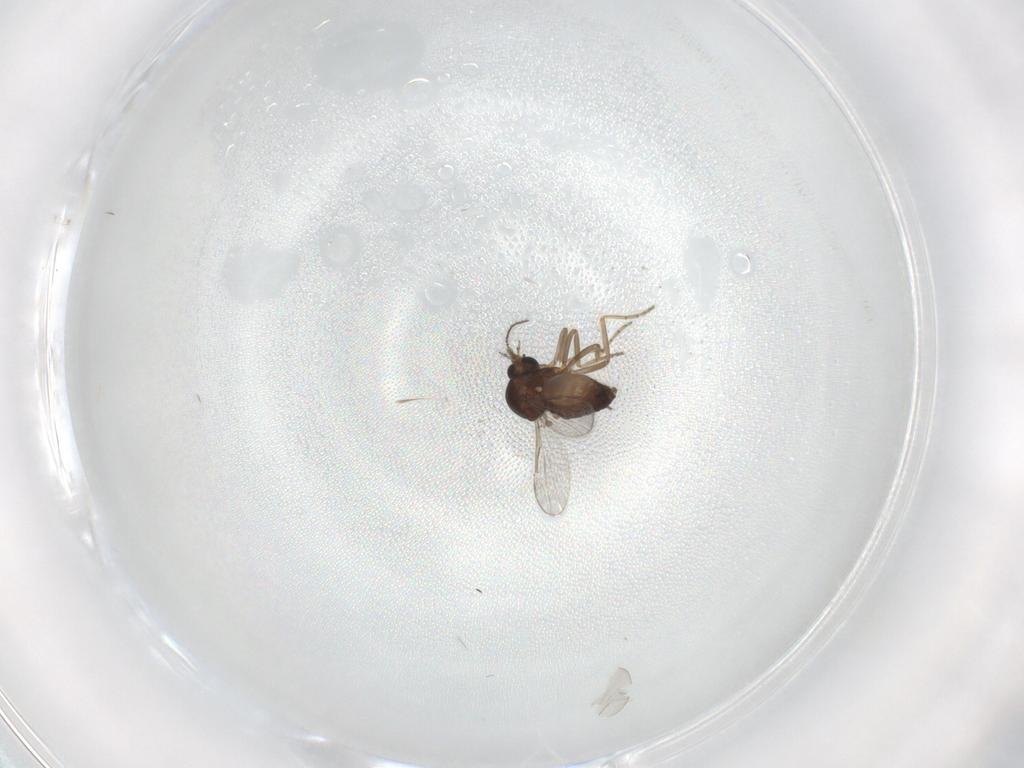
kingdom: Animalia
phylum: Arthropoda
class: Insecta
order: Diptera
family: Ceratopogonidae
